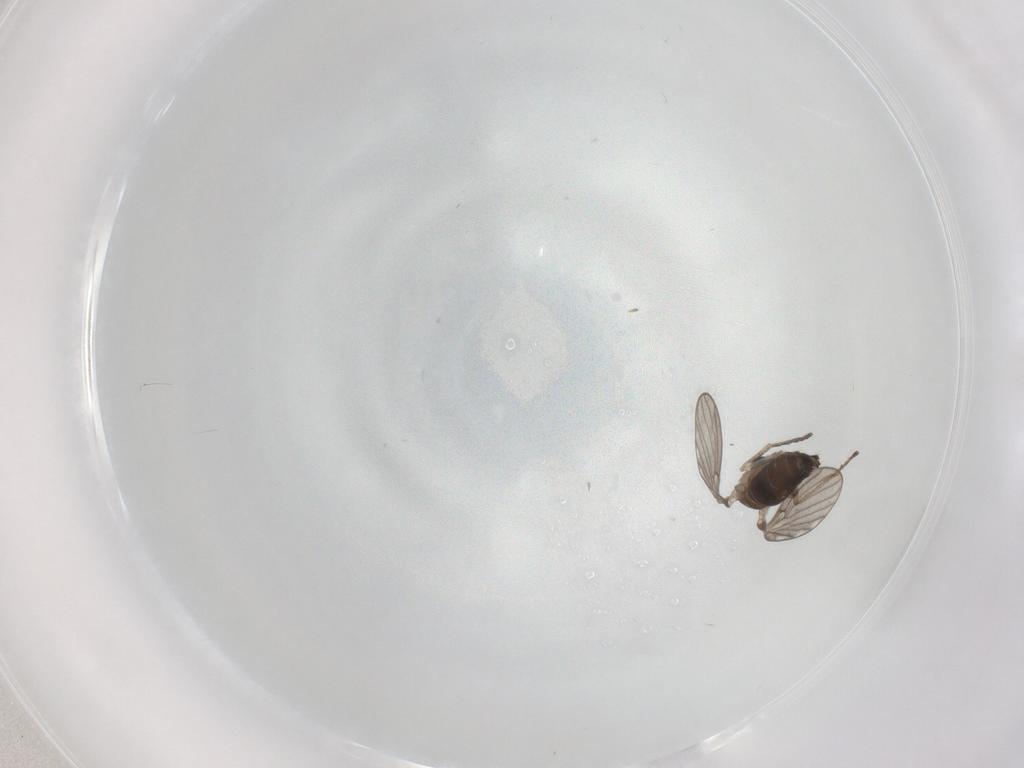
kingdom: Animalia
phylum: Arthropoda
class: Insecta
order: Diptera
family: Psychodidae
